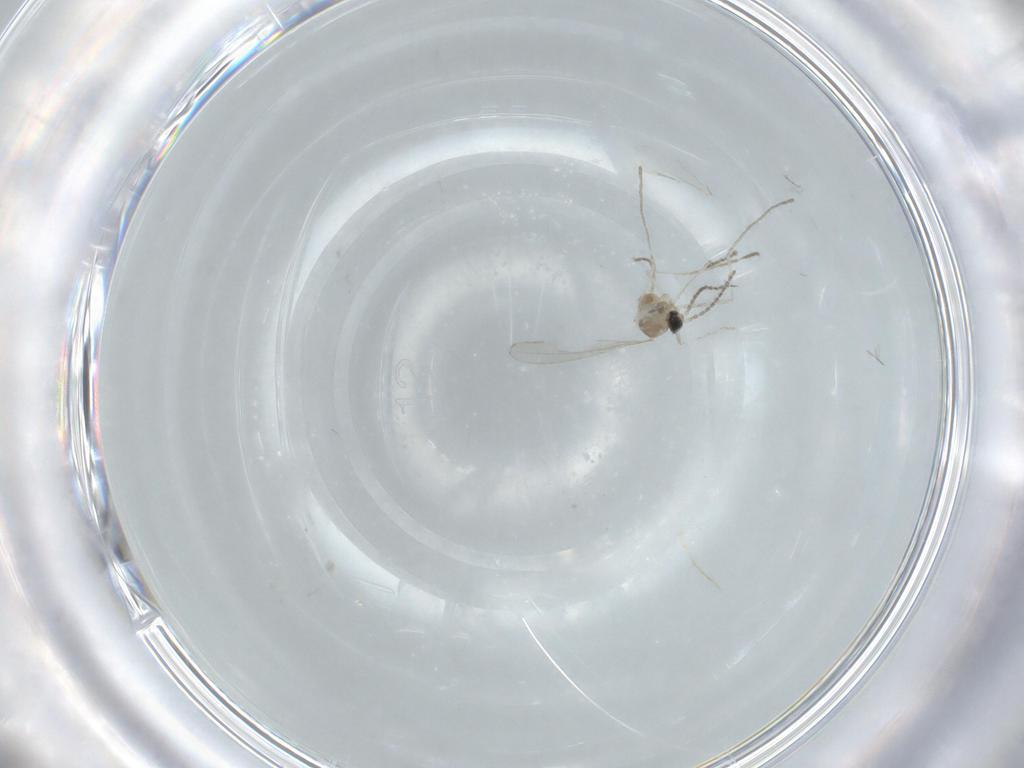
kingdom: Animalia
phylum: Arthropoda
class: Insecta
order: Diptera
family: Cecidomyiidae
